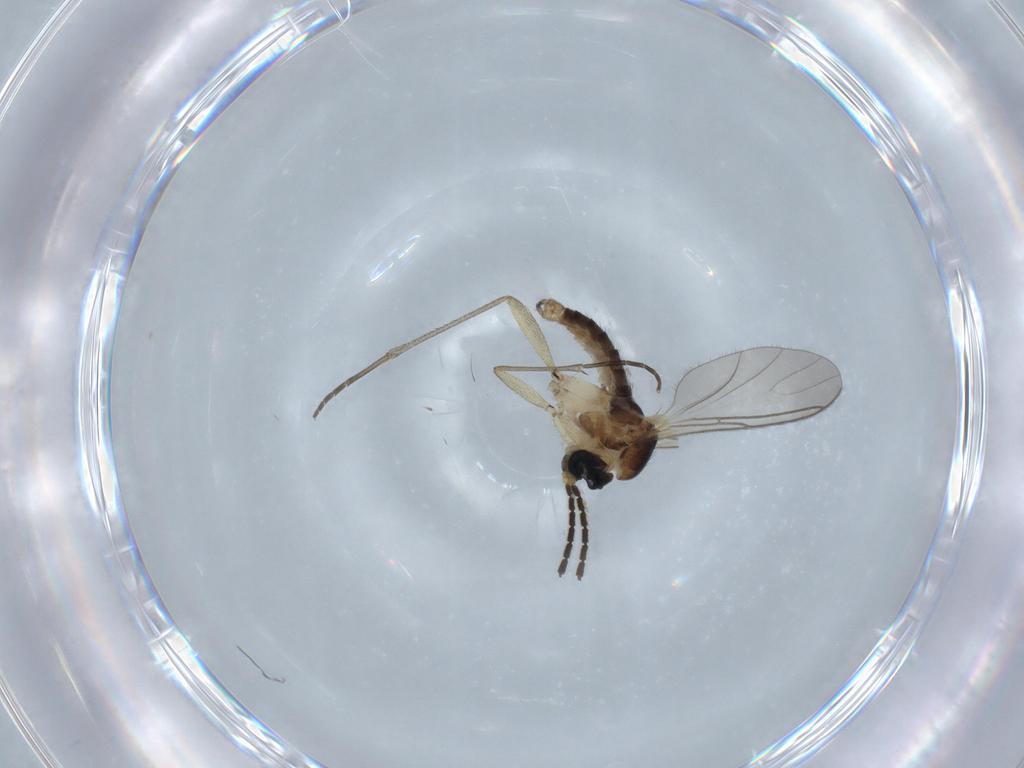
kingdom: Animalia
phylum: Arthropoda
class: Insecta
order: Diptera
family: Sciaridae
